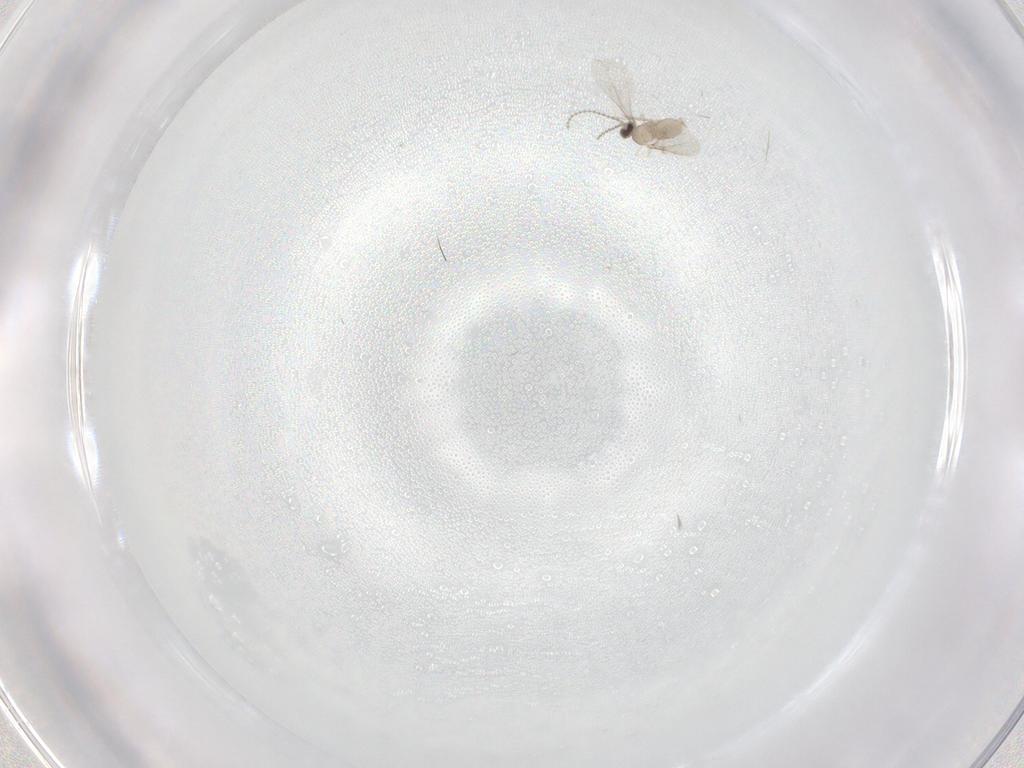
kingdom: Animalia
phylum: Arthropoda
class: Insecta
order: Diptera
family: Cecidomyiidae
